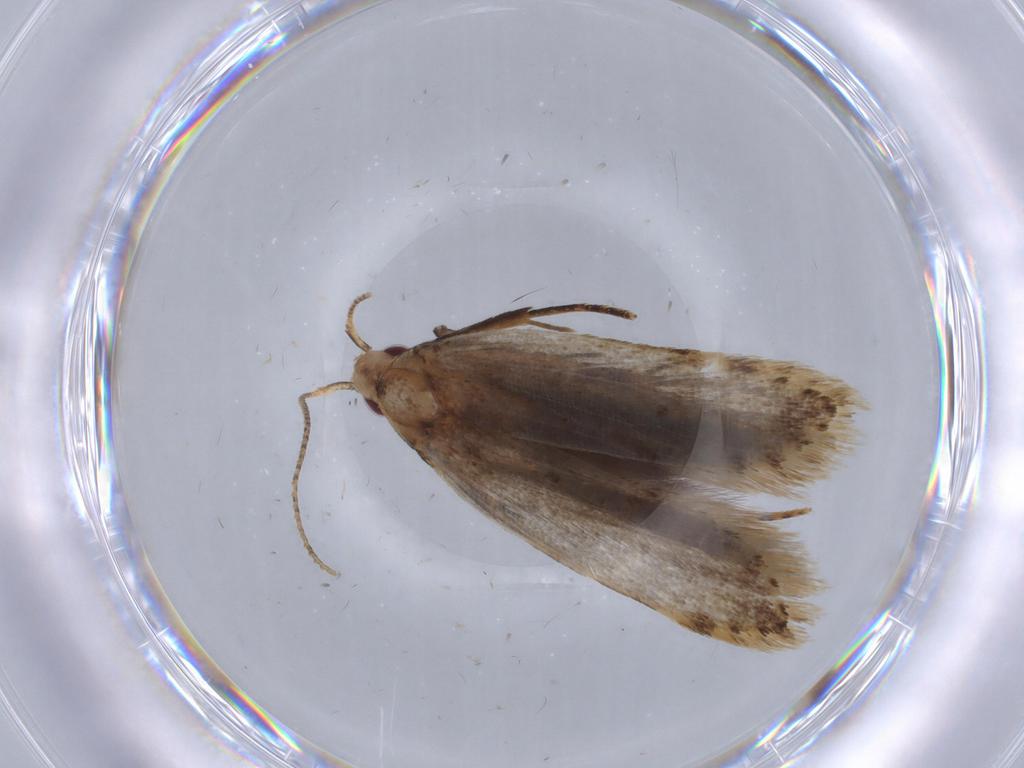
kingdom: Animalia
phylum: Arthropoda
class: Insecta
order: Lepidoptera
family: Gelechiidae
